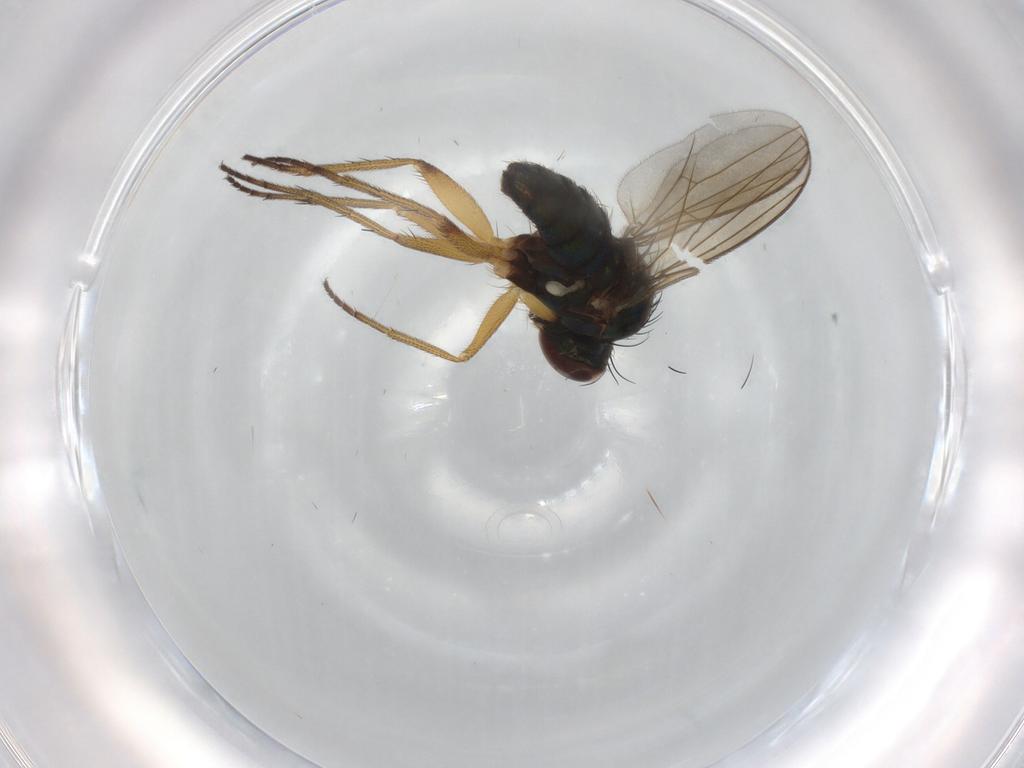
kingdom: Animalia
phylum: Arthropoda
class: Insecta
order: Diptera
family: Dolichopodidae
